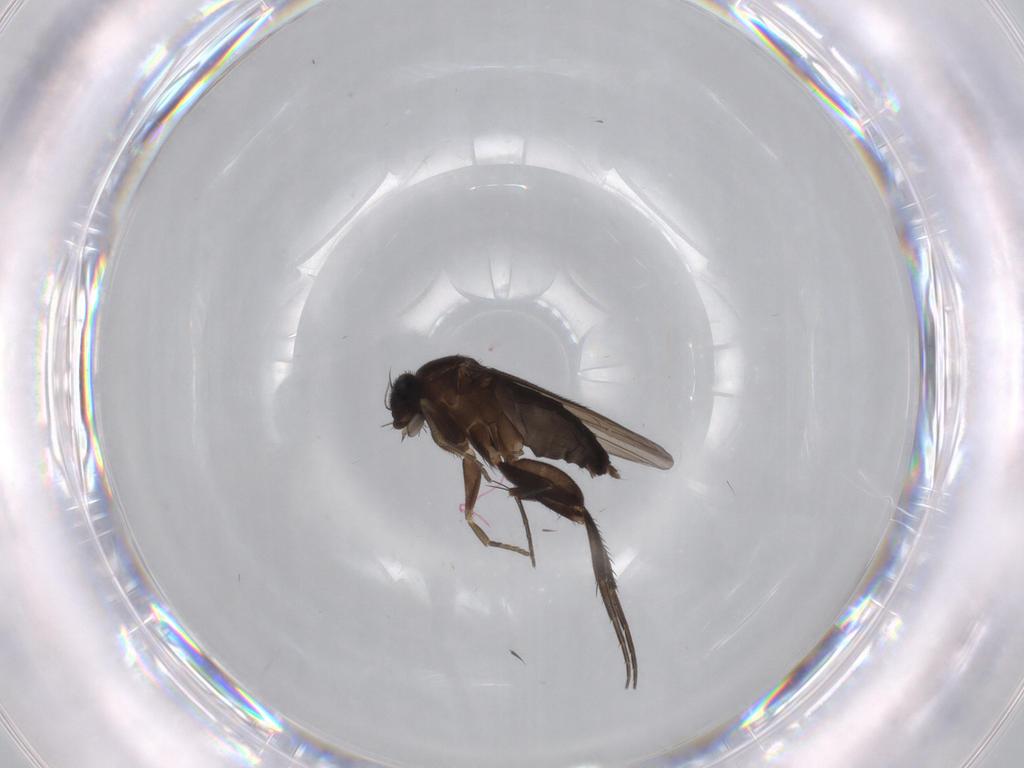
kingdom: Animalia
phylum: Arthropoda
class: Insecta
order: Diptera
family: Phoridae
